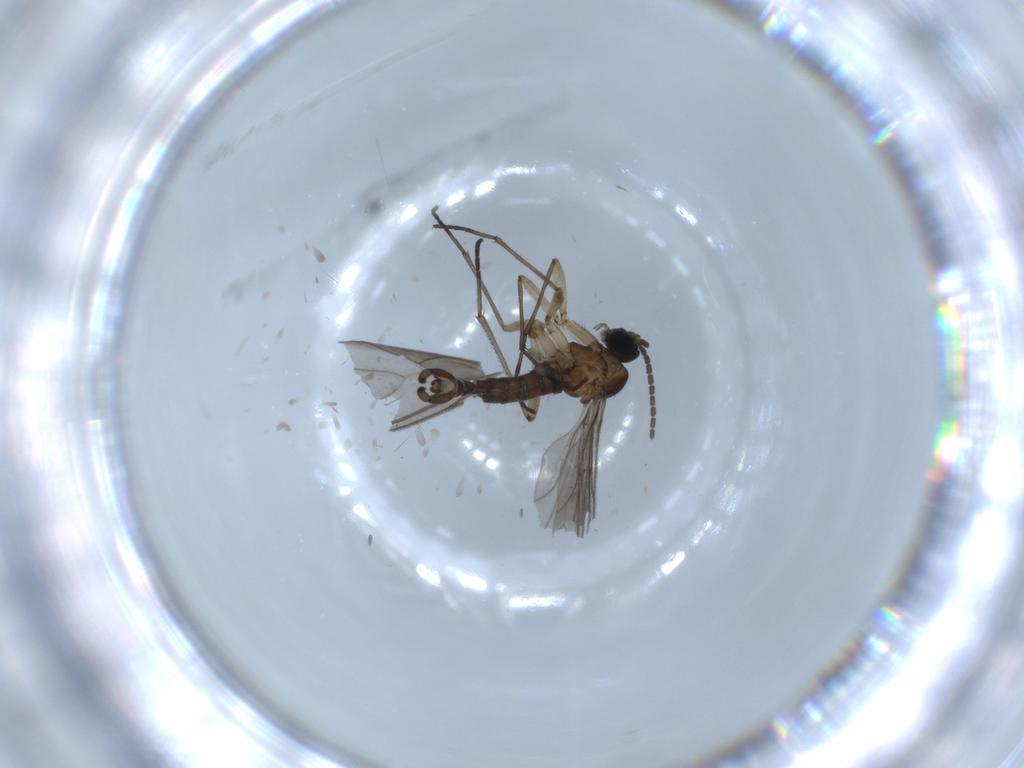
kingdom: Animalia
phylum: Arthropoda
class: Insecta
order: Diptera
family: Sciaridae
